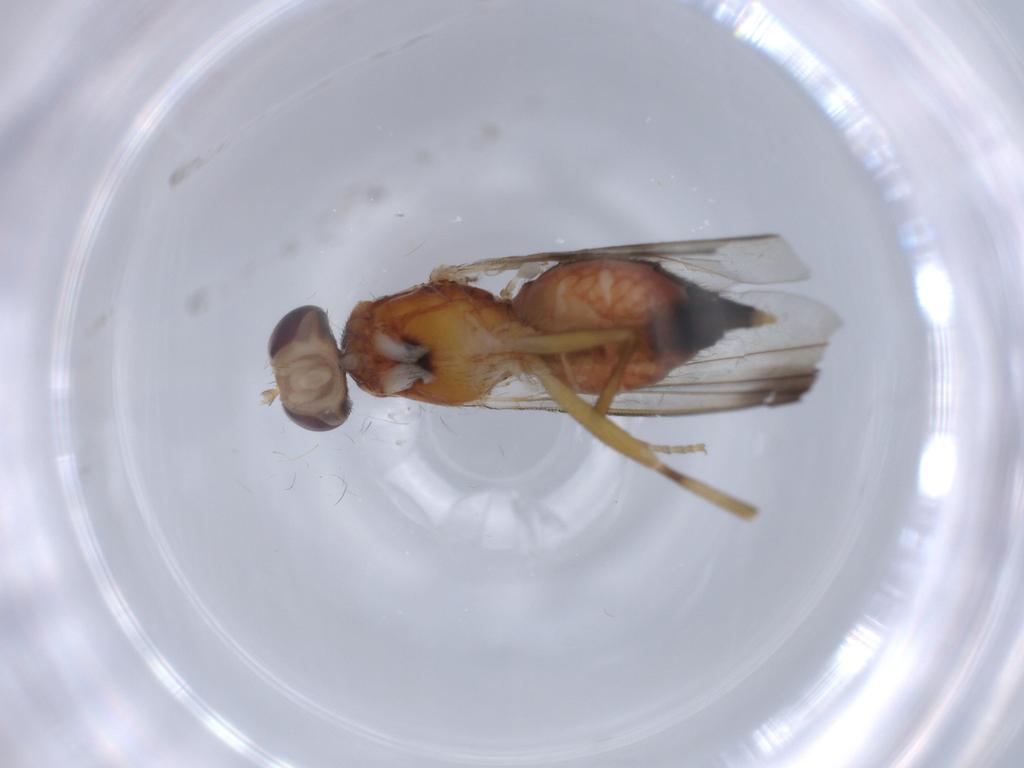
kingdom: Animalia
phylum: Arthropoda
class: Insecta
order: Diptera
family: Clusiidae
